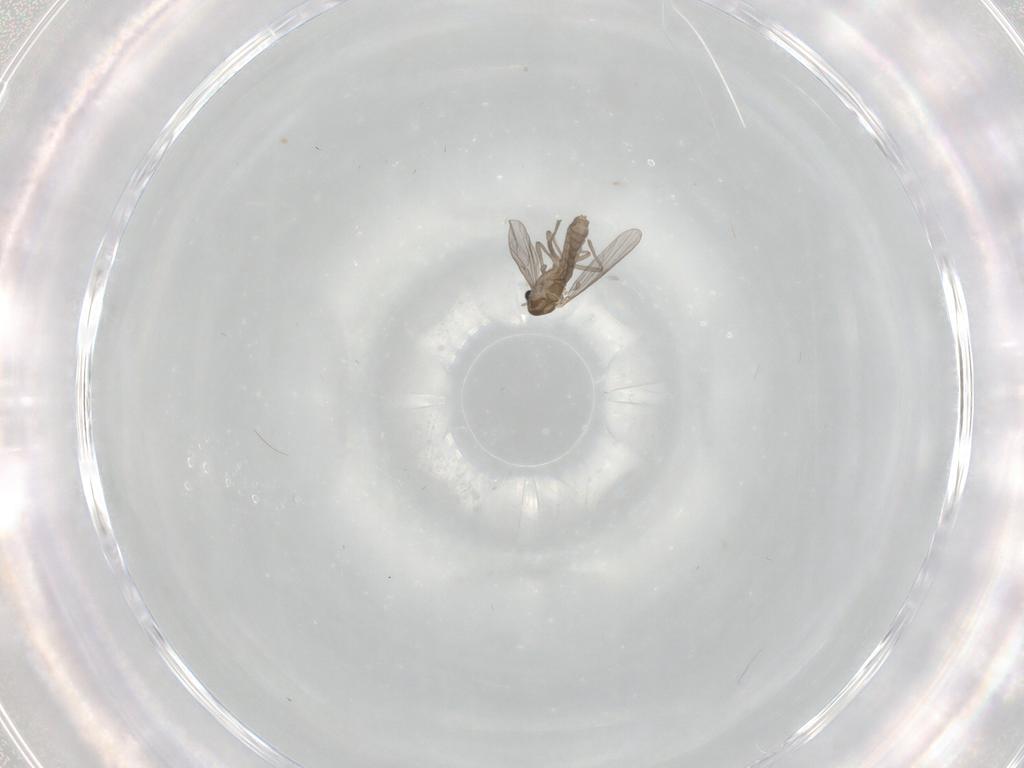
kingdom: Animalia
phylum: Arthropoda
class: Insecta
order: Diptera
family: Chironomidae
